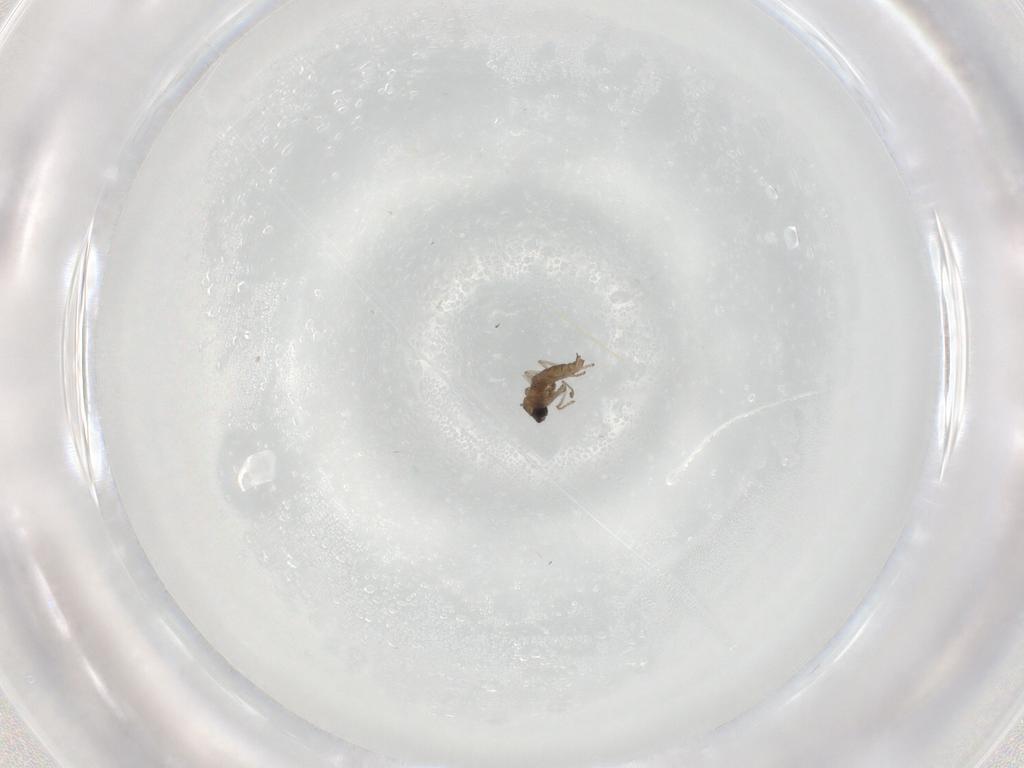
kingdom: Animalia
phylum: Arthropoda
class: Insecta
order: Diptera
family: Cecidomyiidae
